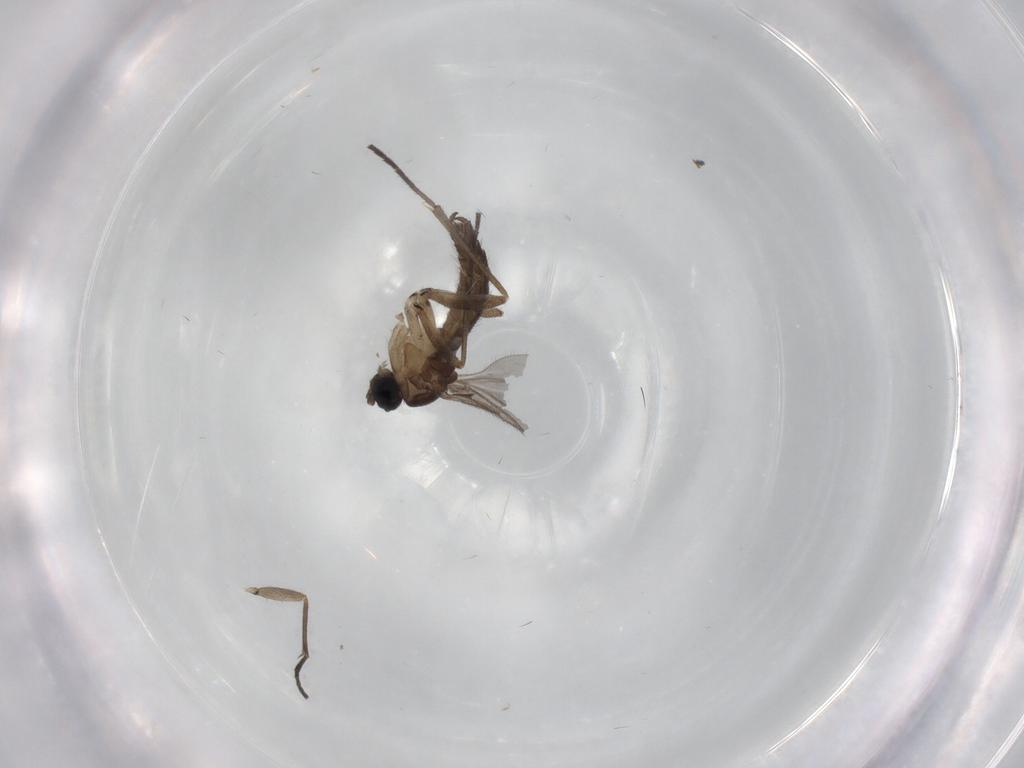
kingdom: Animalia
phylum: Arthropoda
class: Insecta
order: Diptera
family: Sciaridae
